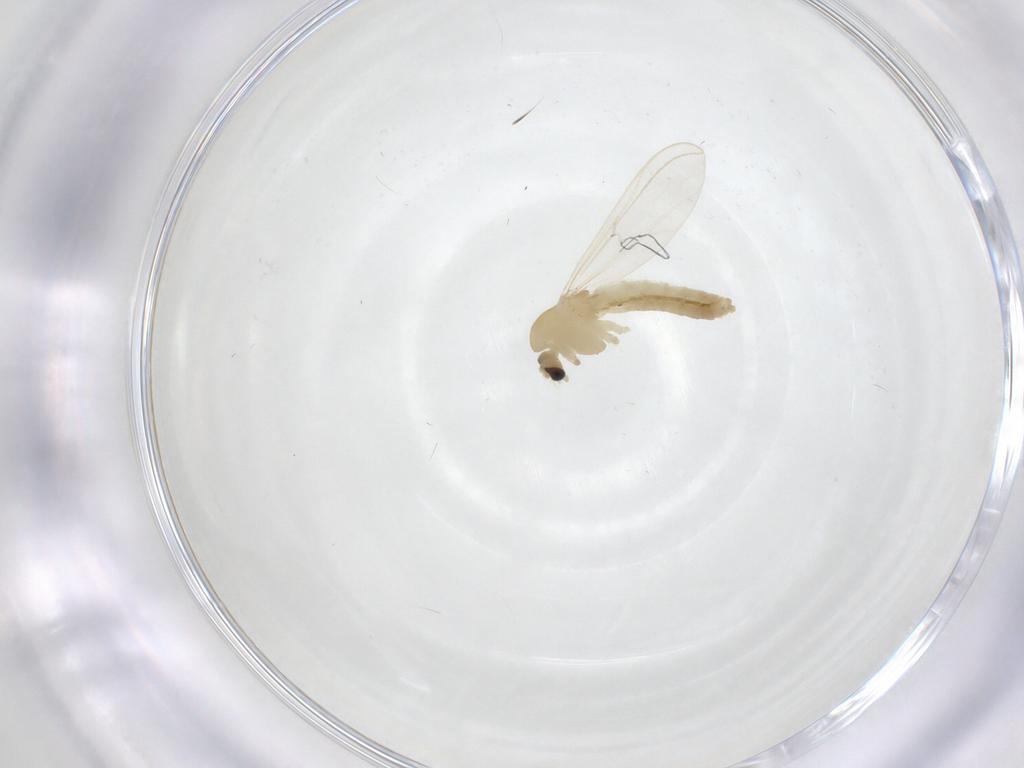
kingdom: Animalia
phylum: Arthropoda
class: Insecta
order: Diptera
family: Chironomidae
